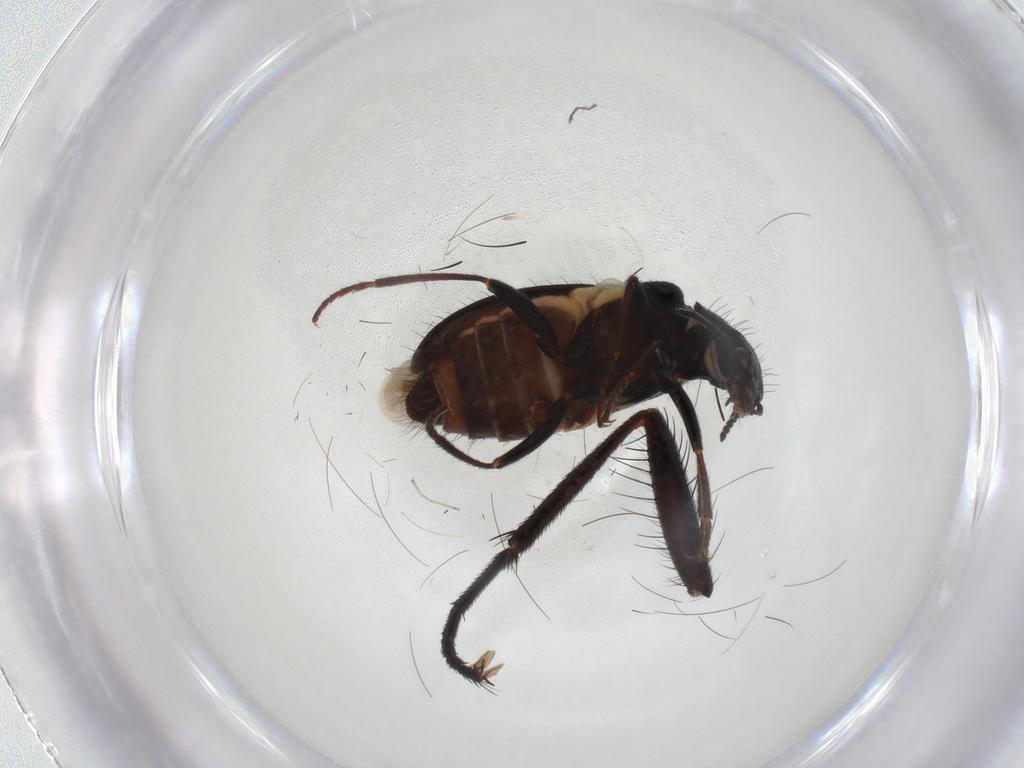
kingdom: Animalia
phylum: Arthropoda
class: Insecta
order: Coleoptera
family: Melyridae
